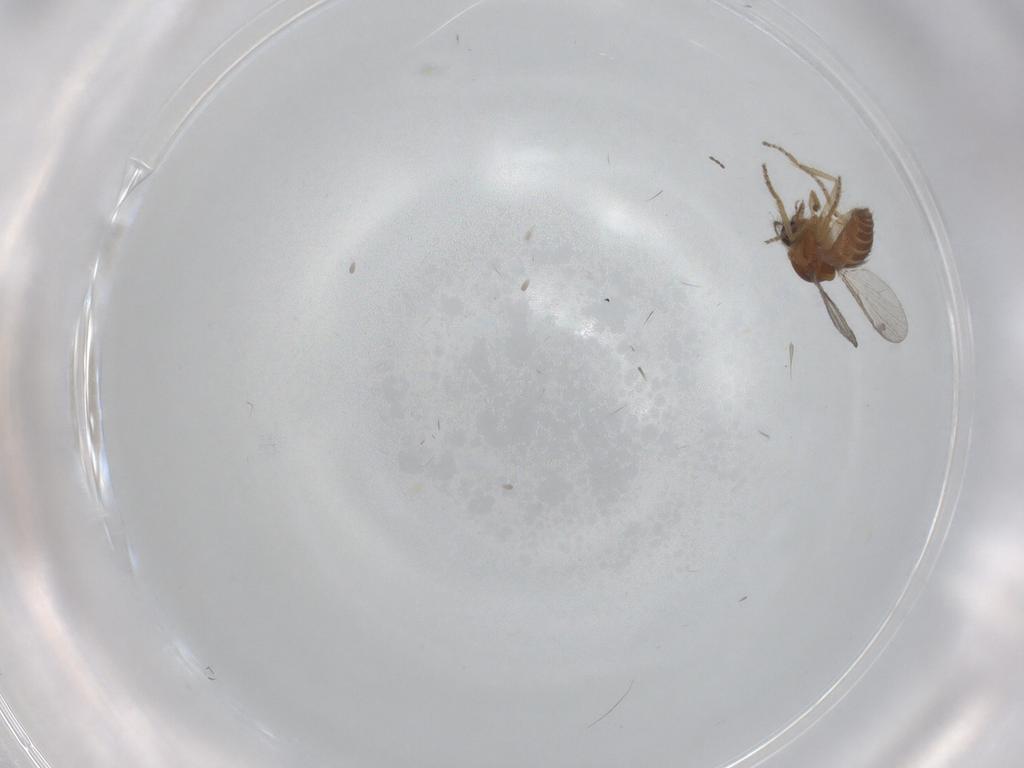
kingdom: Animalia
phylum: Arthropoda
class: Insecta
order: Diptera
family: Ceratopogonidae
